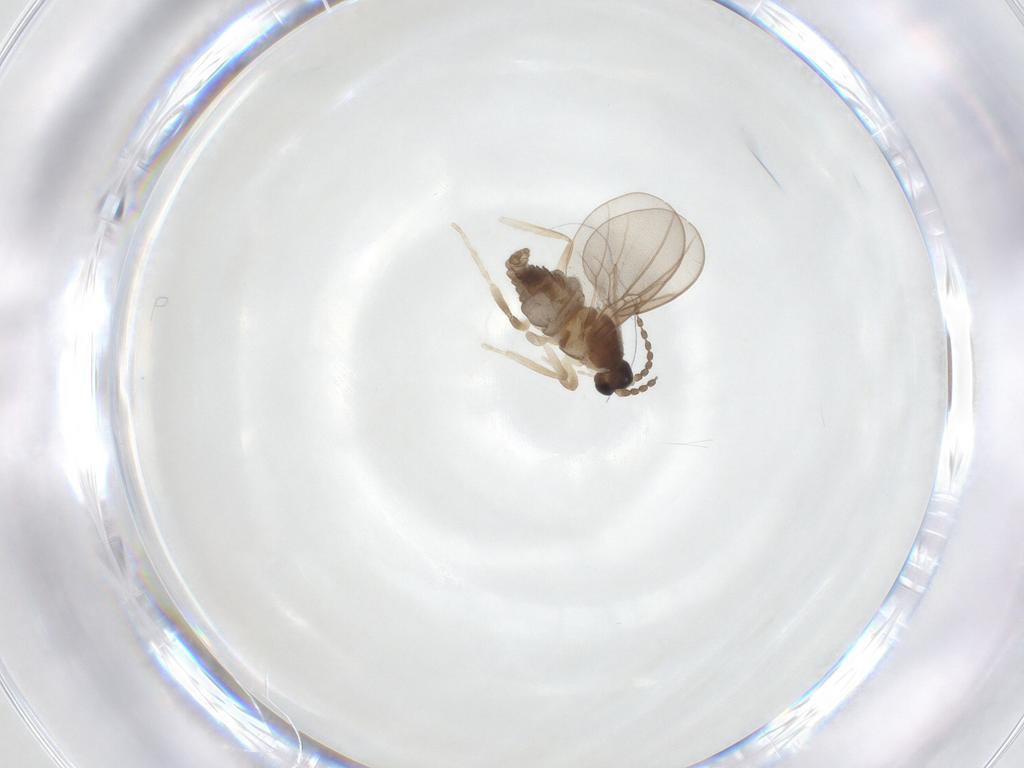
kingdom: Animalia
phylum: Arthropoda
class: Insecta
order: Diptera
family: Cecidomyiidae
